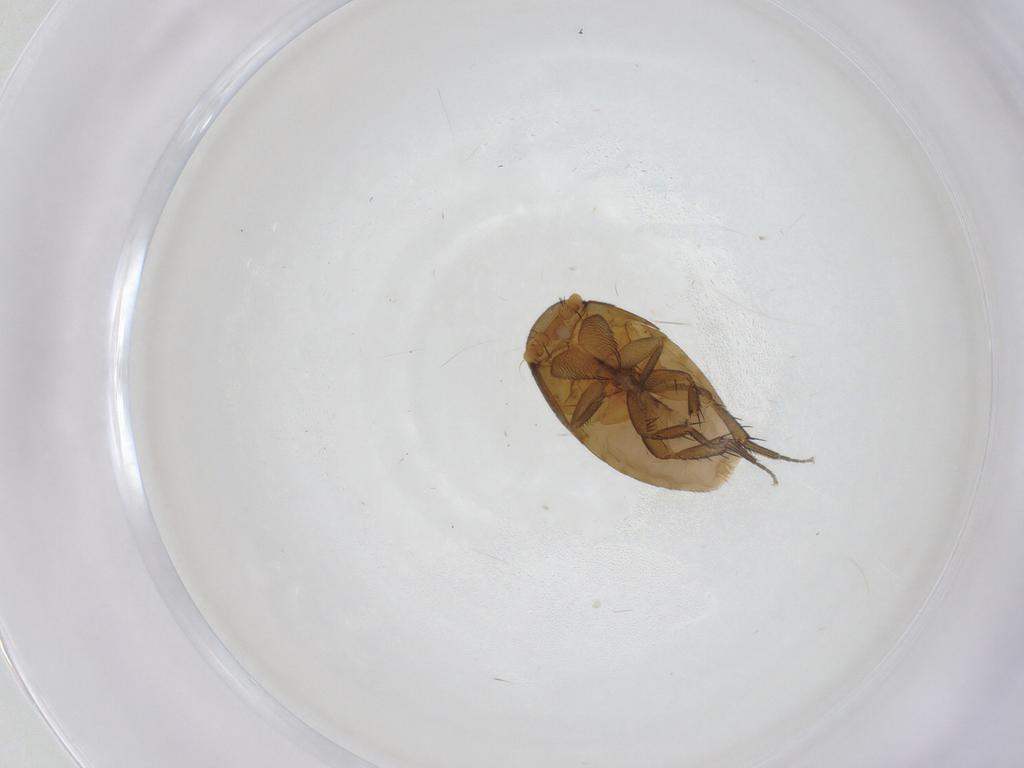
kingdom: Animalia
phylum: Arthropoda
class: Insecta
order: Diptera
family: Phoridae
